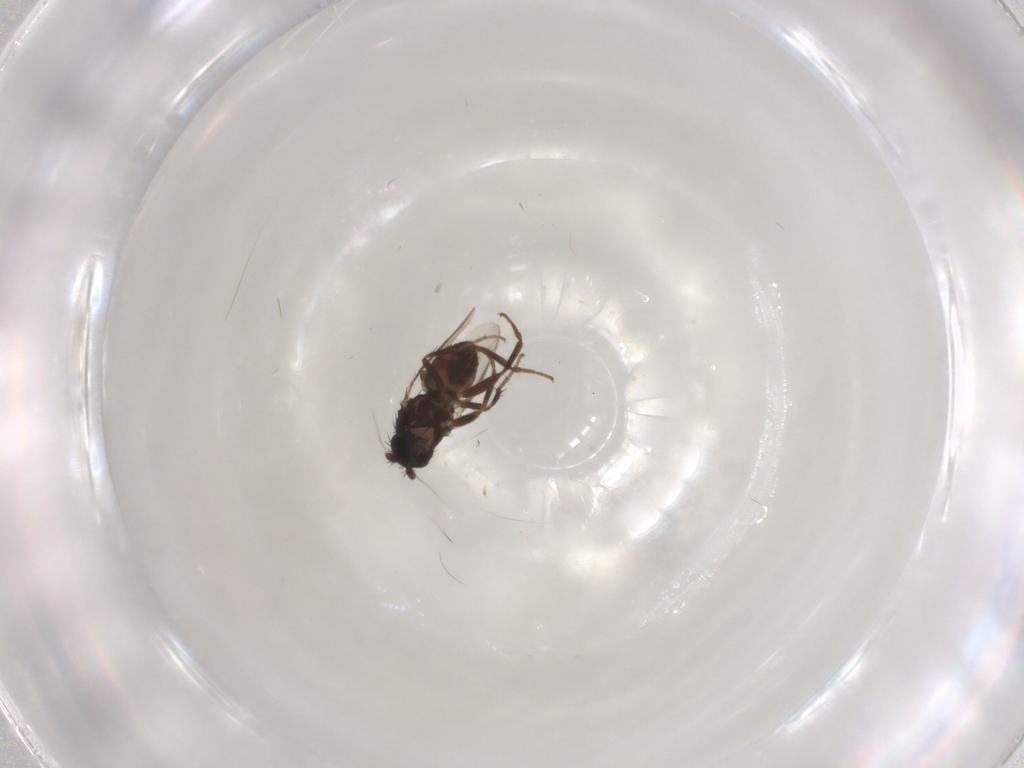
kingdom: Animalia
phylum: Arthropoda
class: Insecta
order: Diptera
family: Sphaeroceridae
